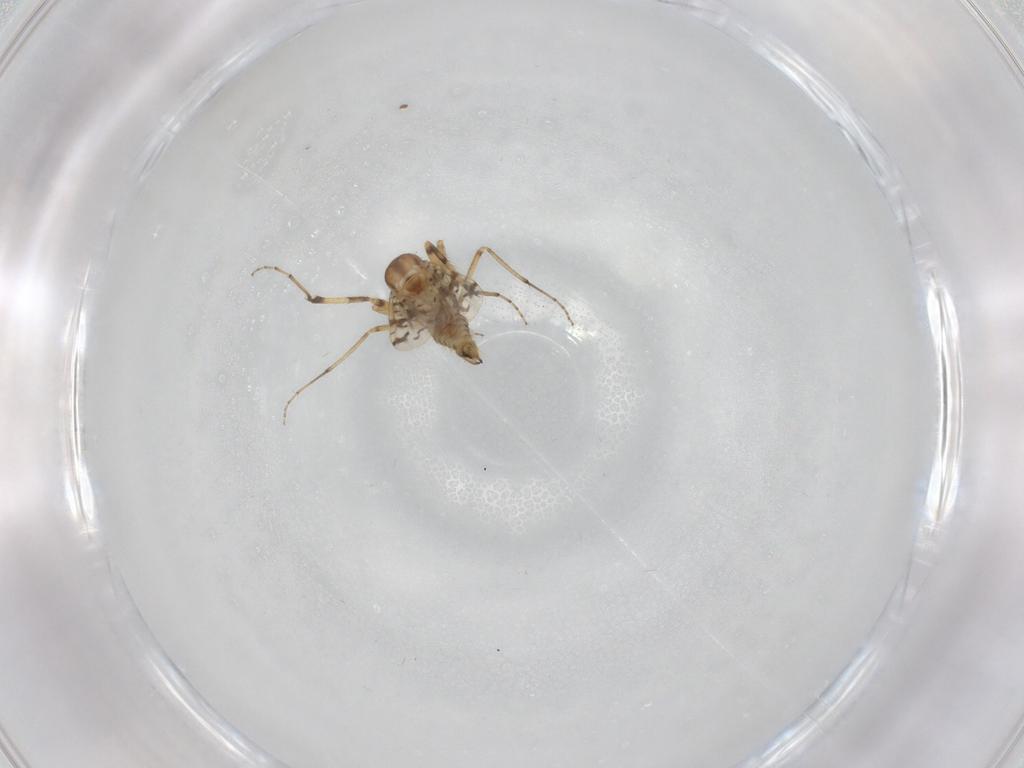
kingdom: Animalia
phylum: Arthropoda
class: Insecta
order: Diptera
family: Ceratopogonidae
